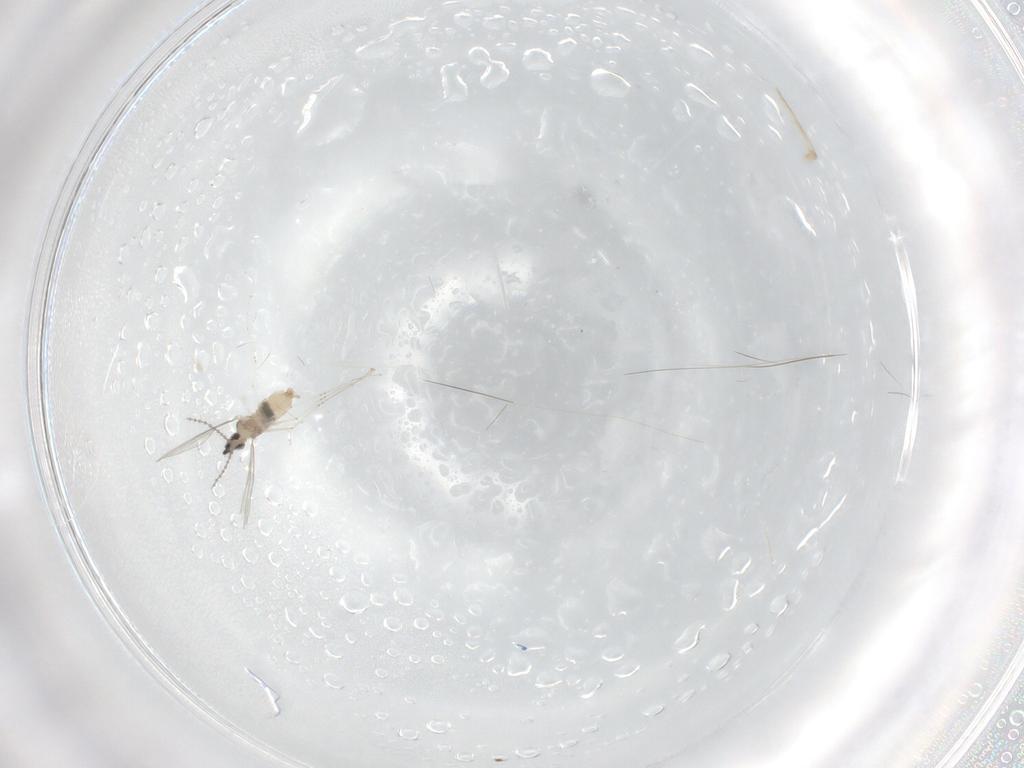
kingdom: Animalia
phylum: Arthropoda
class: Insecta
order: Diptera
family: Cecidomyiidae
